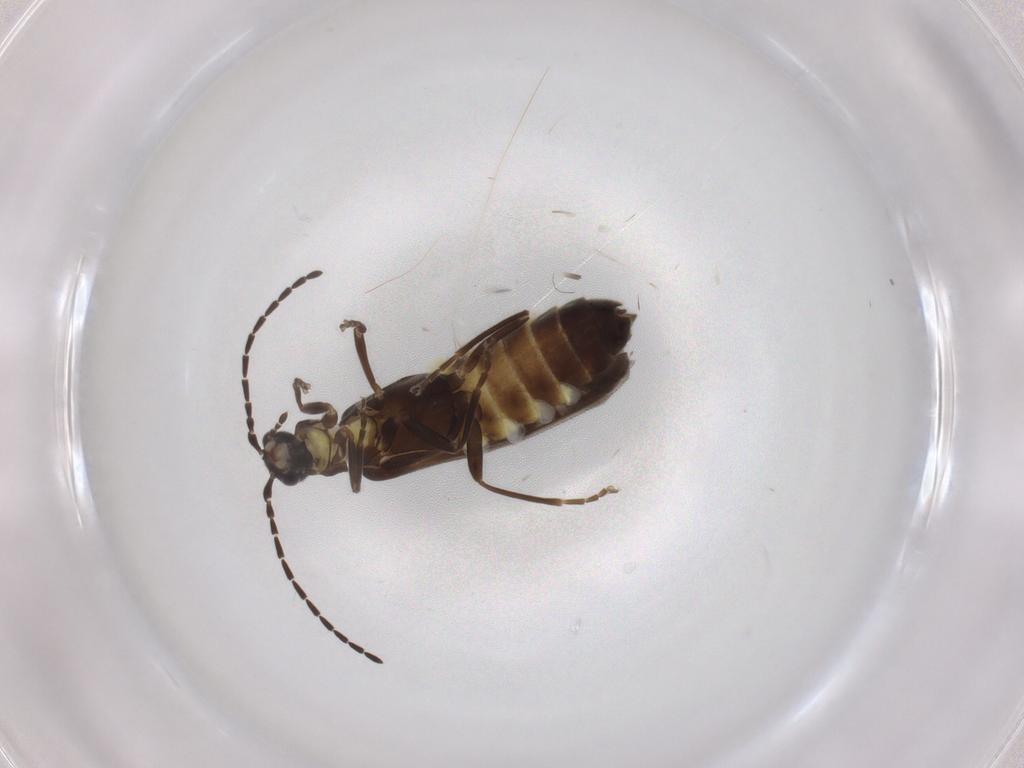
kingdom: Animalia
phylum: Arthropoda
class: Insecta
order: Coleoptera
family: Cantharidae
